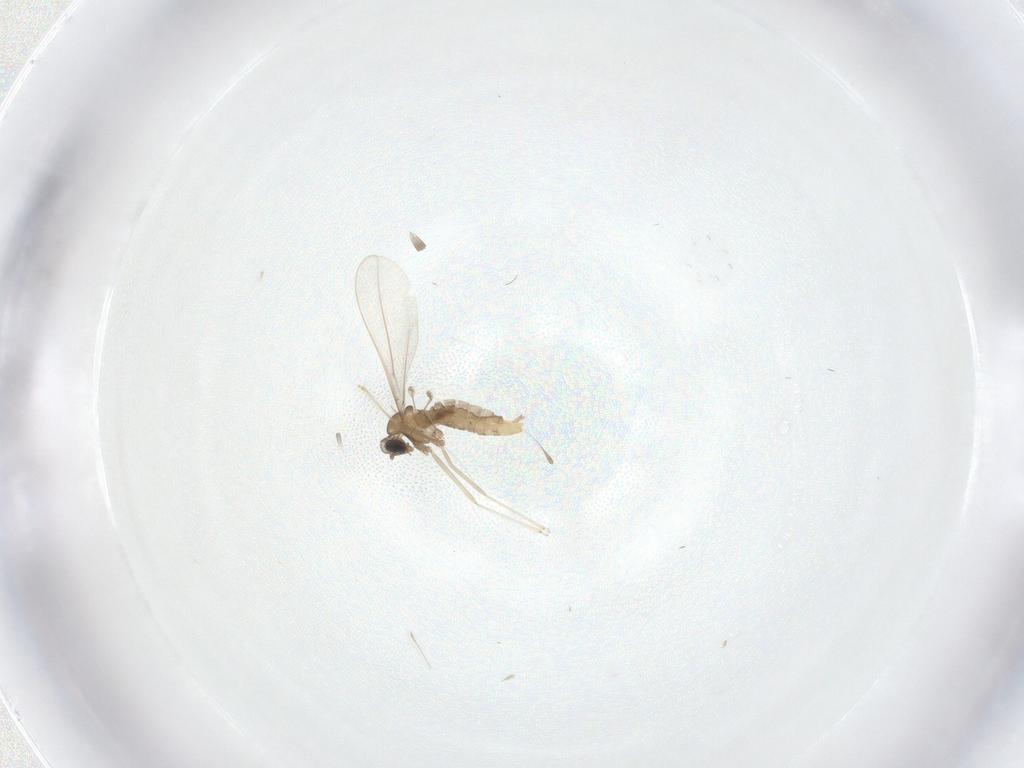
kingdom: Animalia
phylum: Arthropoda
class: Insecta
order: Diptera
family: Cecidomyiidae
